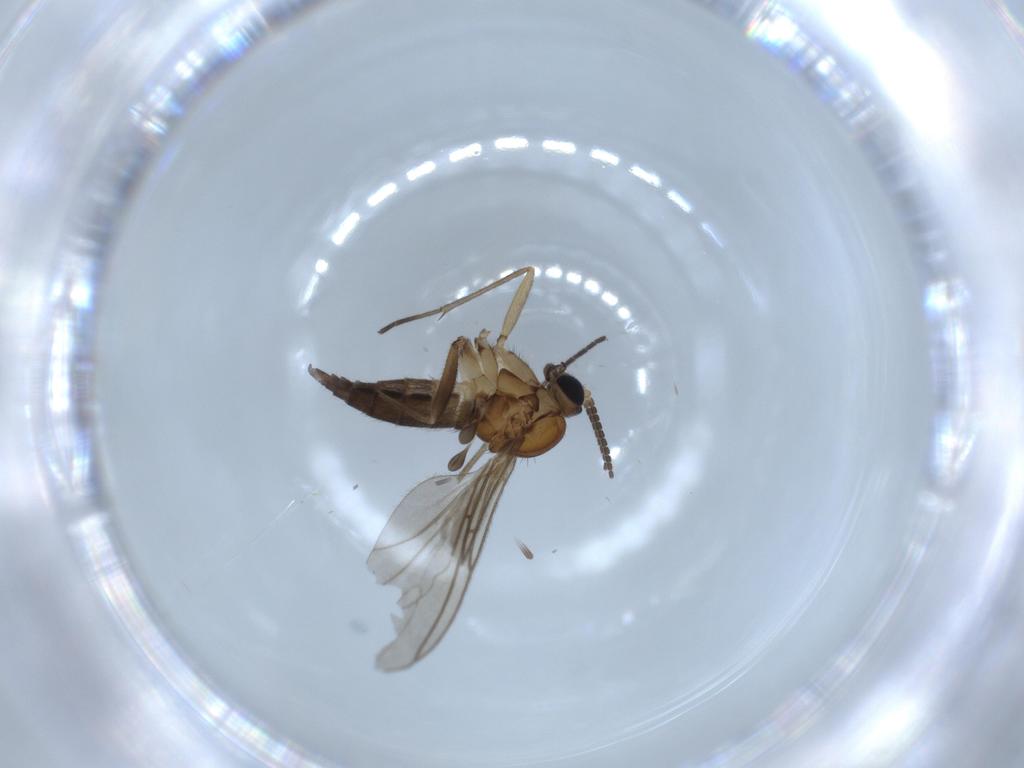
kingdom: Animalia
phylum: Arthropoda
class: Insecta
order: Diptera
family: Sciaridae
